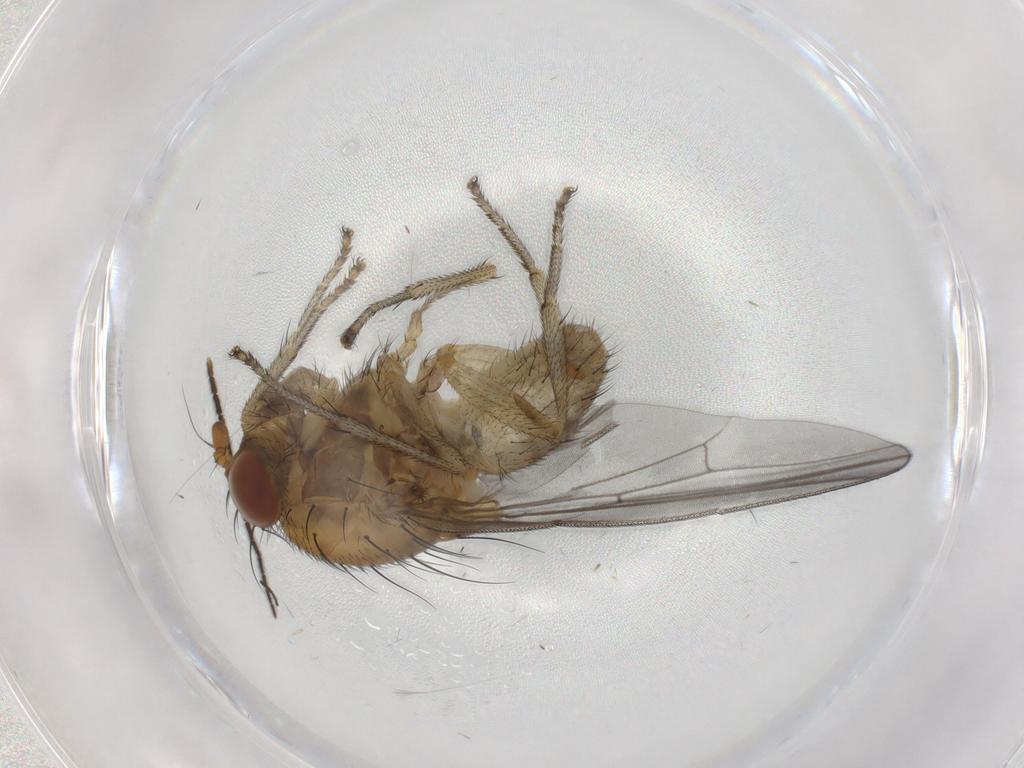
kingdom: Animalia
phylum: Arthropoda
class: Insecta
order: Diptera
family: Lauxaniidae
